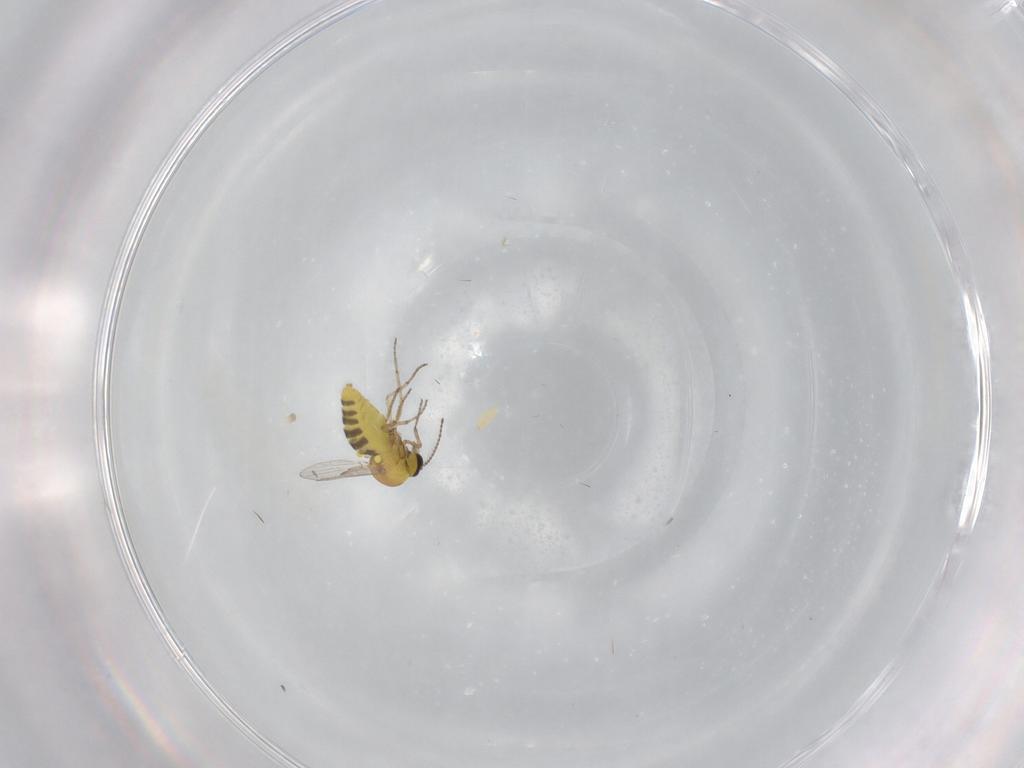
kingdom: Animalia
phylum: Arthropoda
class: Insecta
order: Diptera
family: Ceratopogonidae
